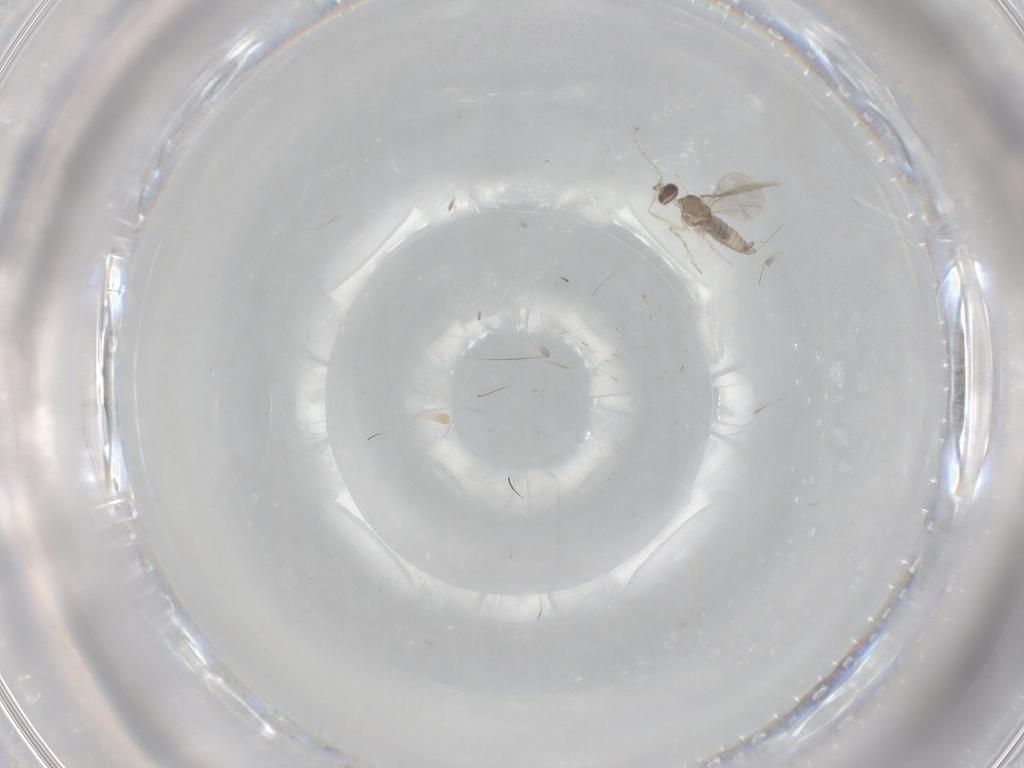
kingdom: Animalia
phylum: Arthropoda
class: Insecta
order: Diptera
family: Cecidomyiidae
